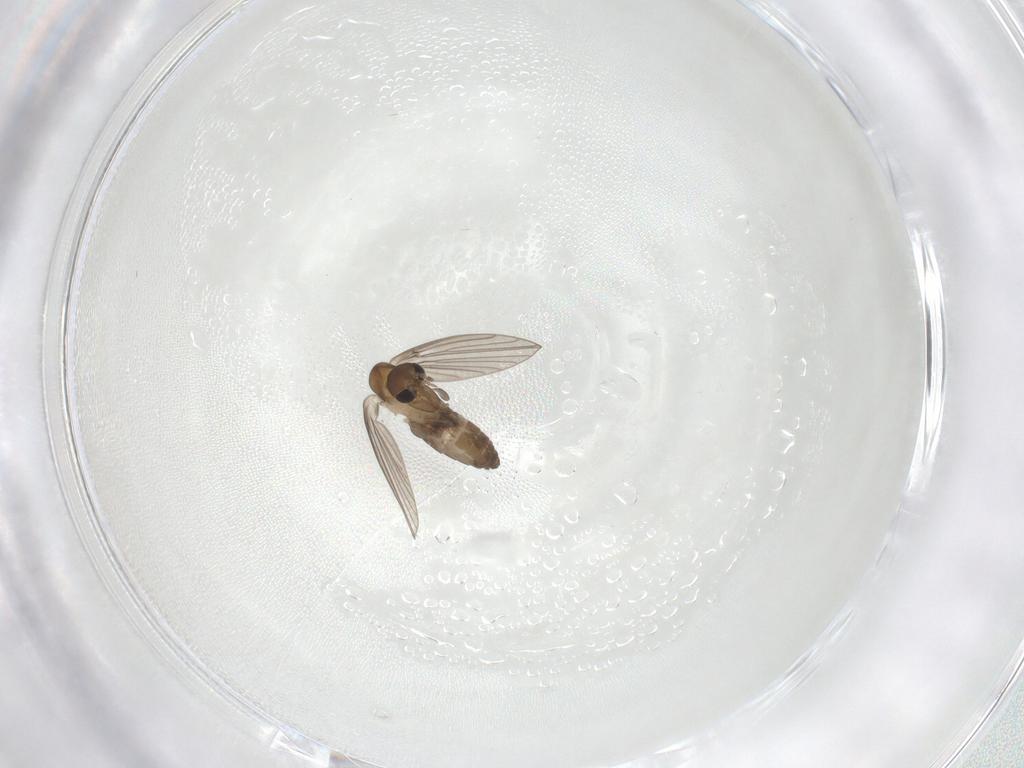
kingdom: Animalia
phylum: Arthropoda
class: Insecta
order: Diptera
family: Psychodidae
